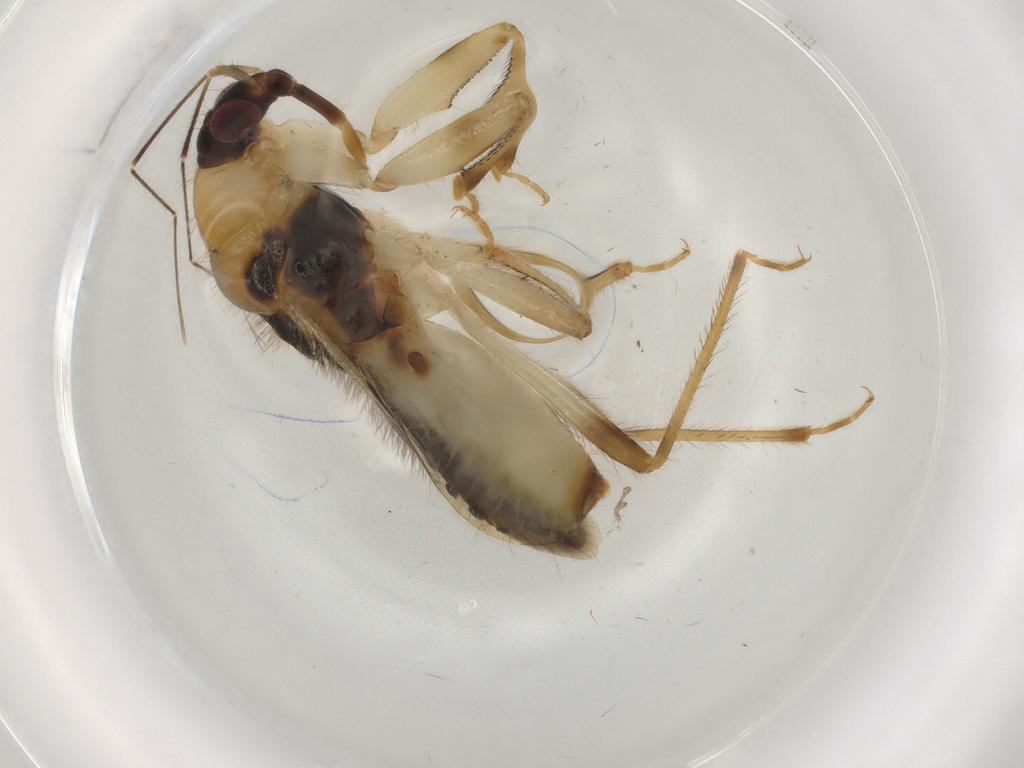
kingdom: Animalia
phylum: Arthropoda
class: Insecta
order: Hemiptera
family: Nabidae
